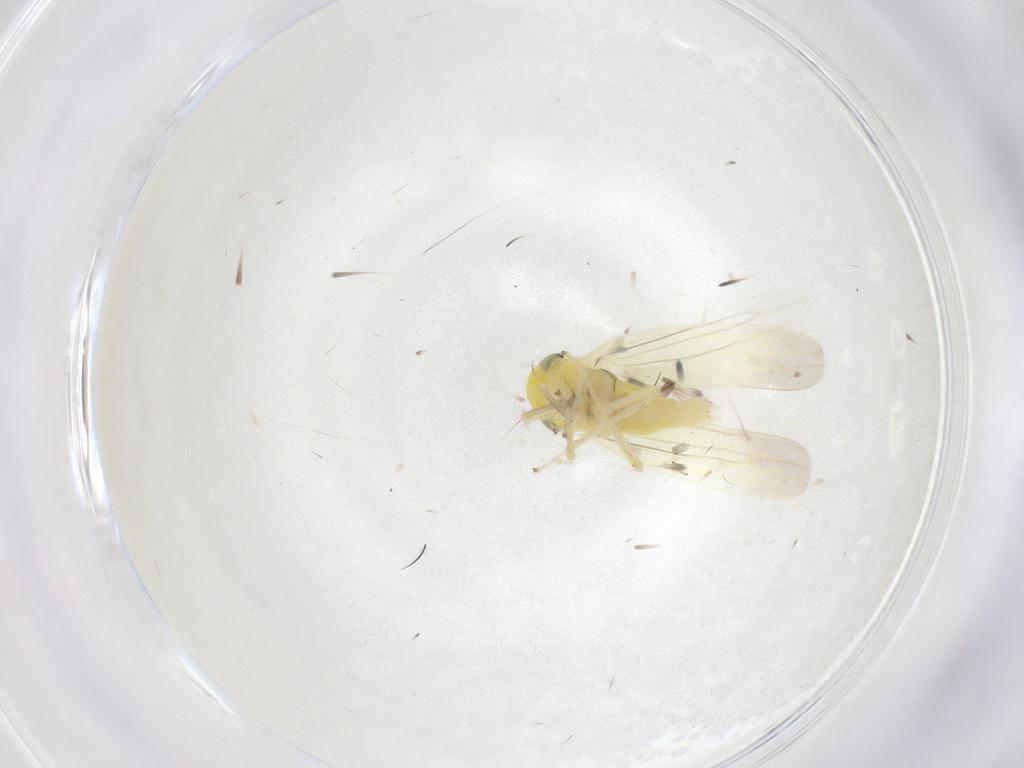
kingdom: Animalia
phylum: Arthropoda
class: Insecta
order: Hemiptera
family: Cicadellidae
